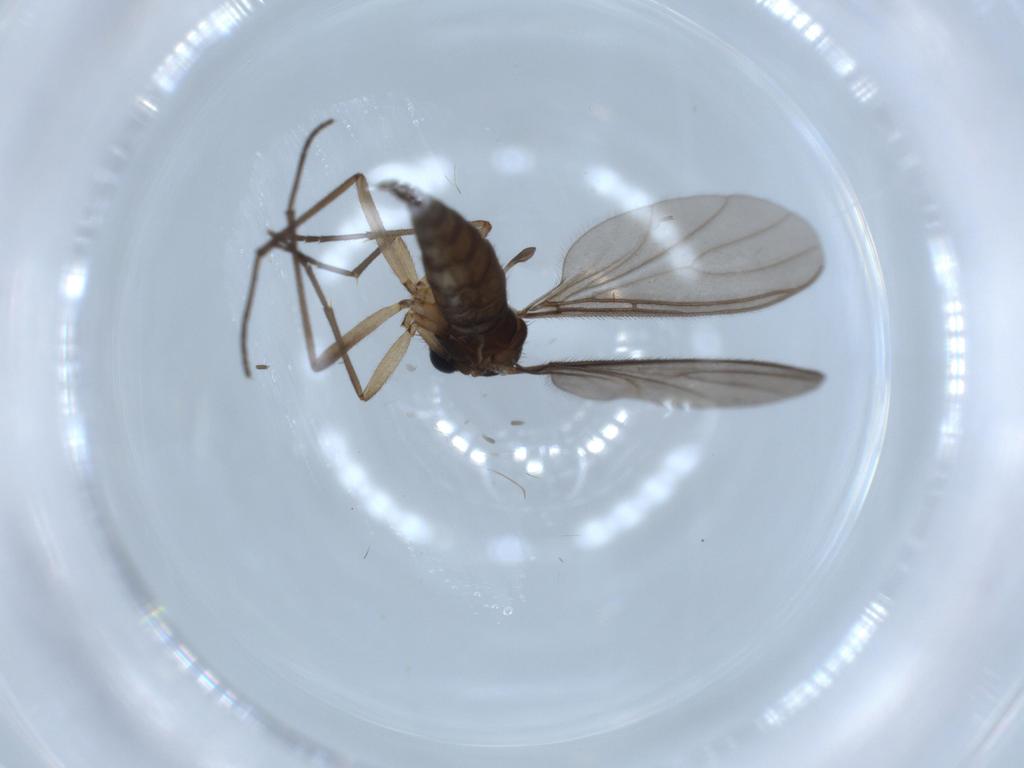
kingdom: Animalia
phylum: Arthropoda
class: Insecta
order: Diptera
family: Sciaridae
